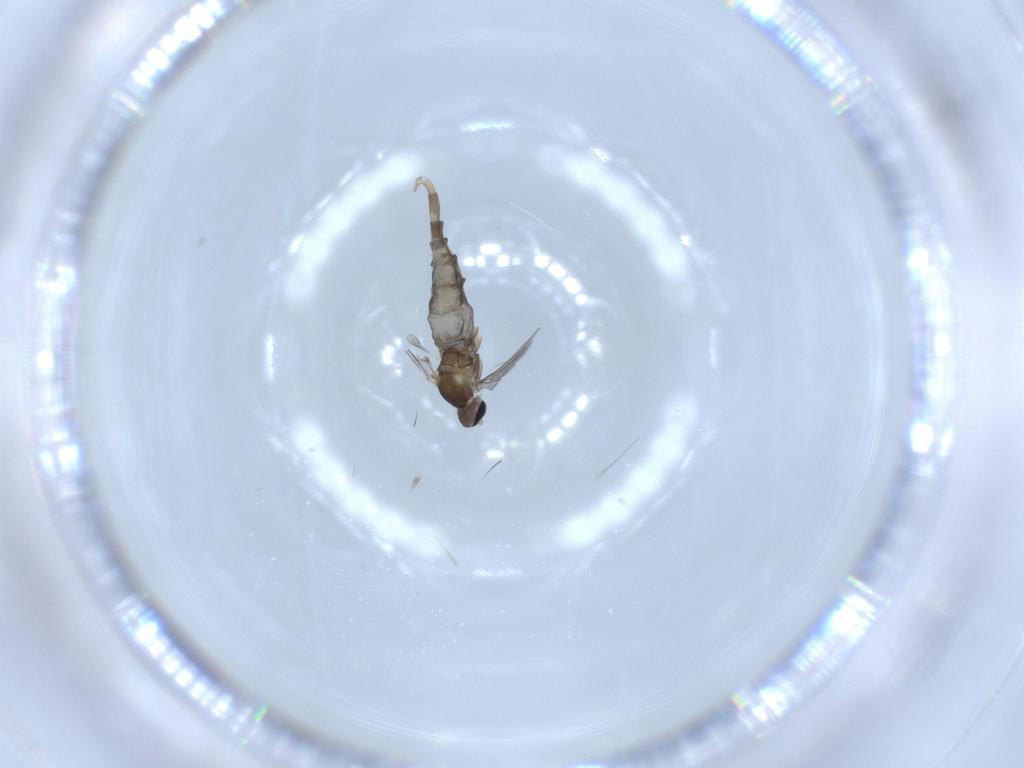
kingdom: Animalia
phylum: Arthropoda
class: Insecta
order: Diptera
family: Cecidomyiidae
